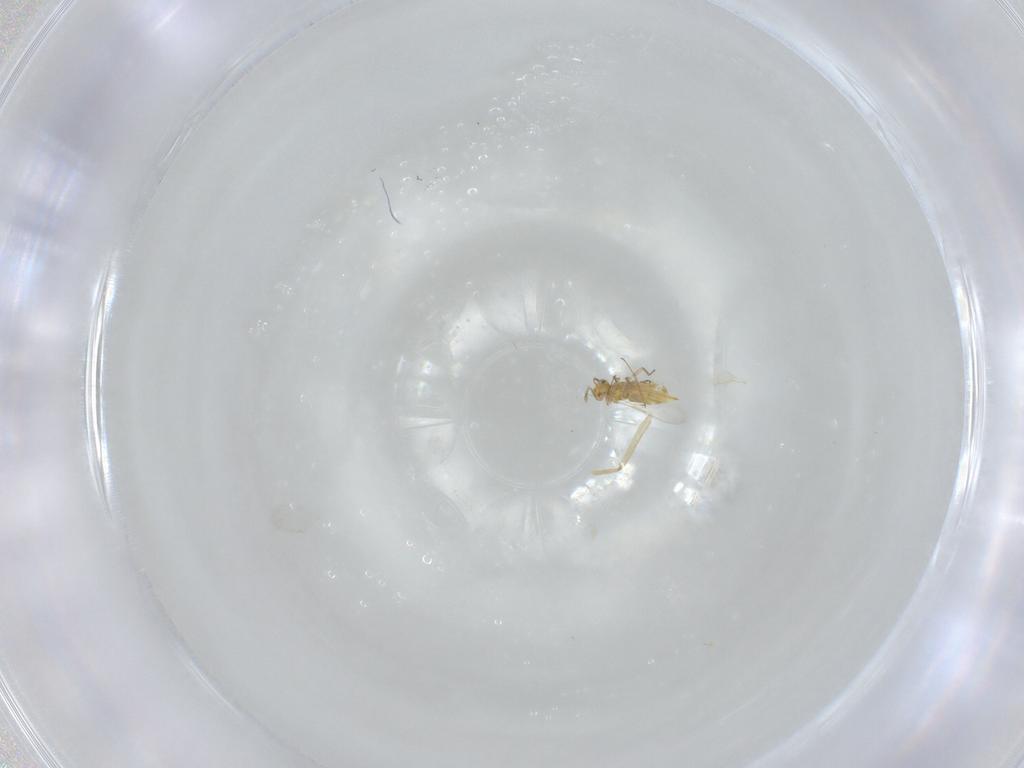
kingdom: Animalia
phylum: Arthropoda
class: Insecta
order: Hymenoptera
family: Aphelinidae
